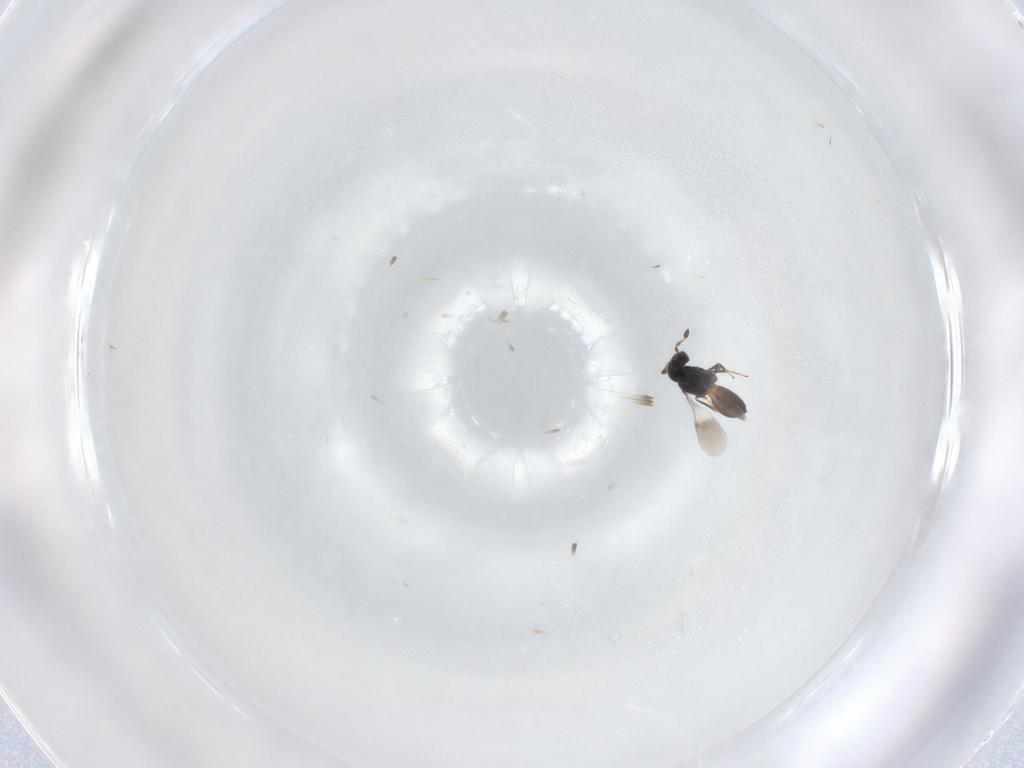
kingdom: Animalia
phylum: Arthropoda
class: Insecta
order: Hymenoptera
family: Scelionidae
